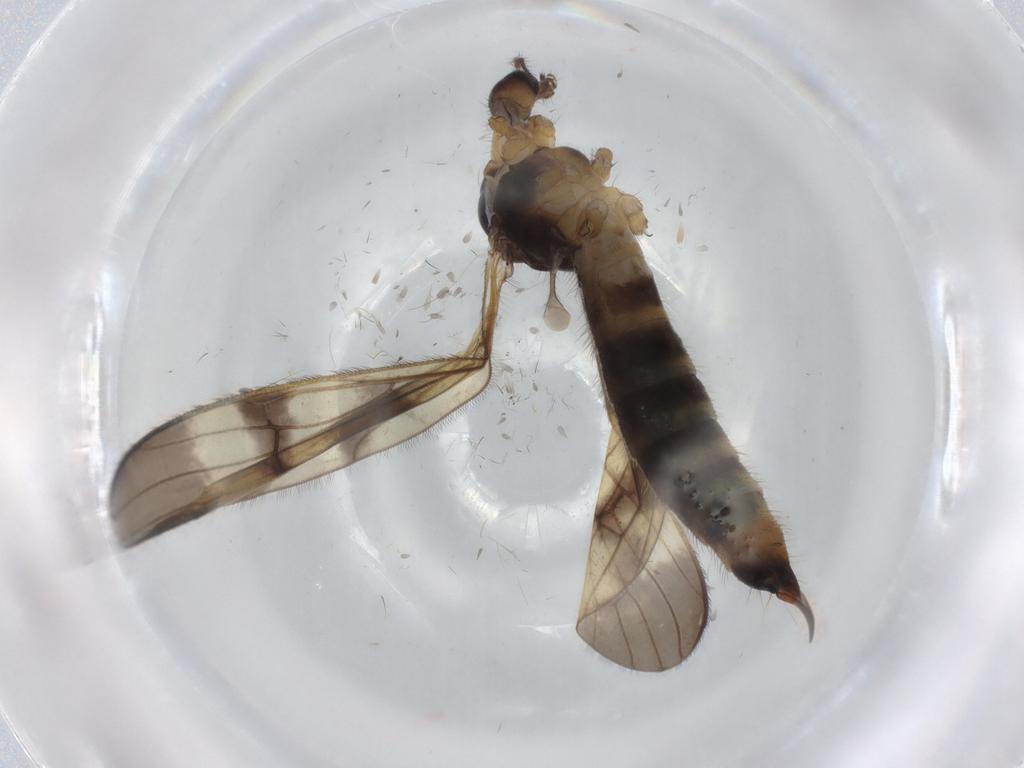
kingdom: Animalia
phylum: Arthropoda
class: Insecta
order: Diptera
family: Limoniidae
